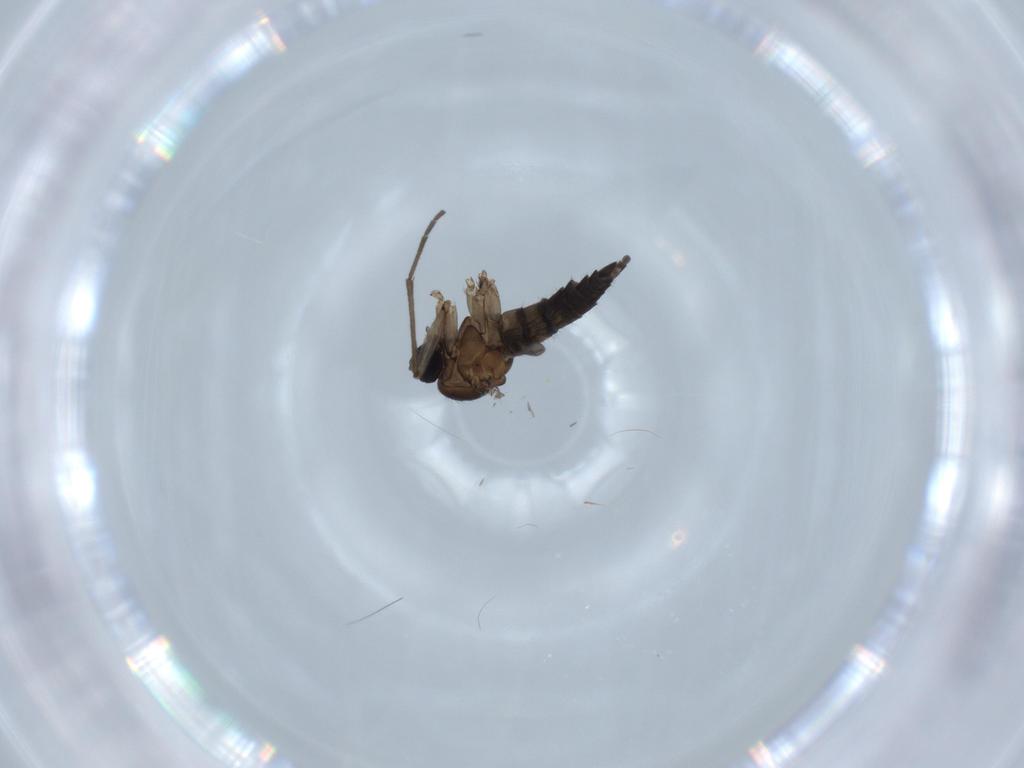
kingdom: Animalia
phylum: Arthropoda
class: Insecta
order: Diptera
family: Sciaridae
